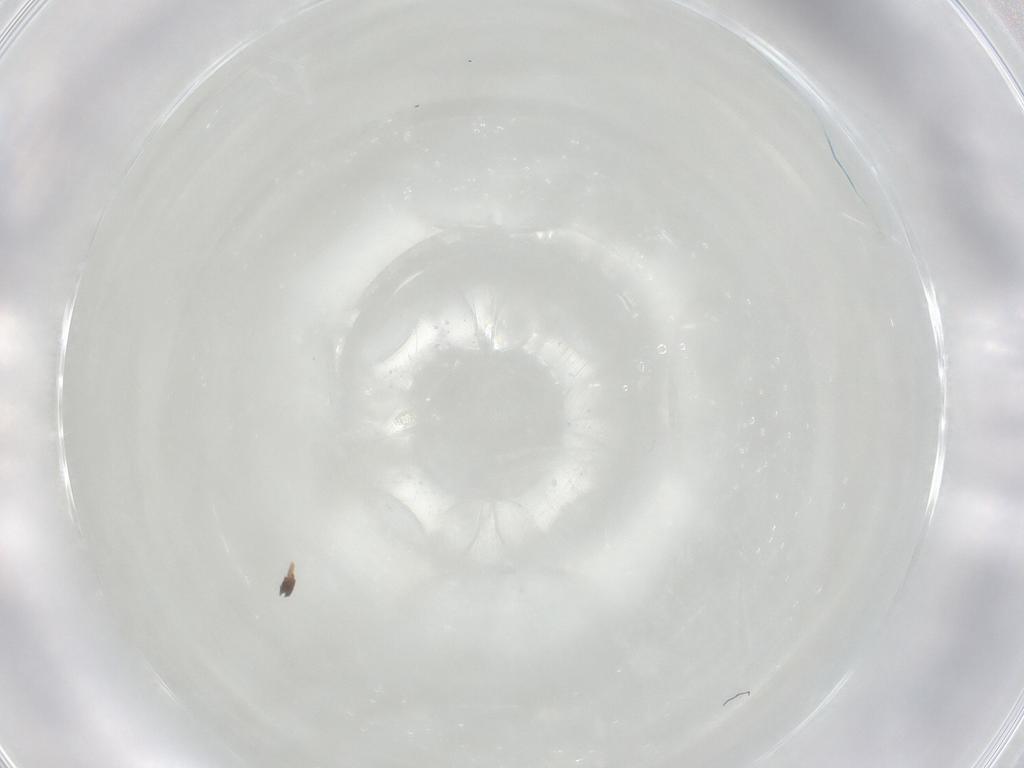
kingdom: Animalia
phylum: Arthropoda
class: Arachnida
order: Trombidiformes
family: Anystidae
